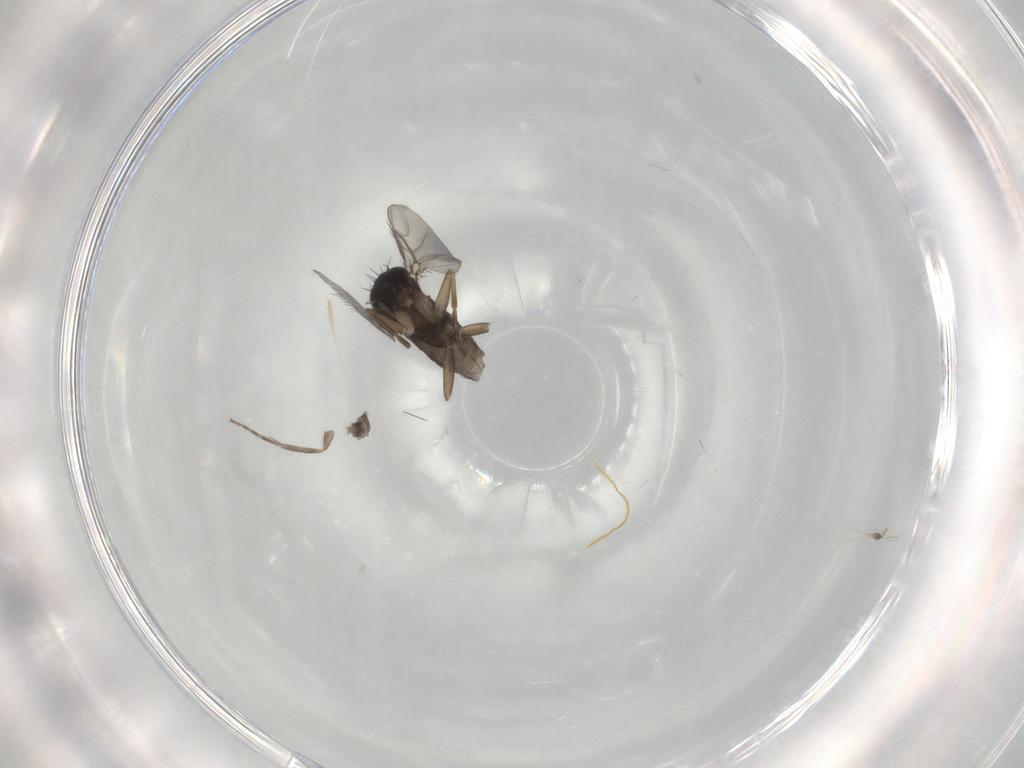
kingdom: Animalia
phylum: Arthropoda
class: Insecta
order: Diptera
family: Phoridae
